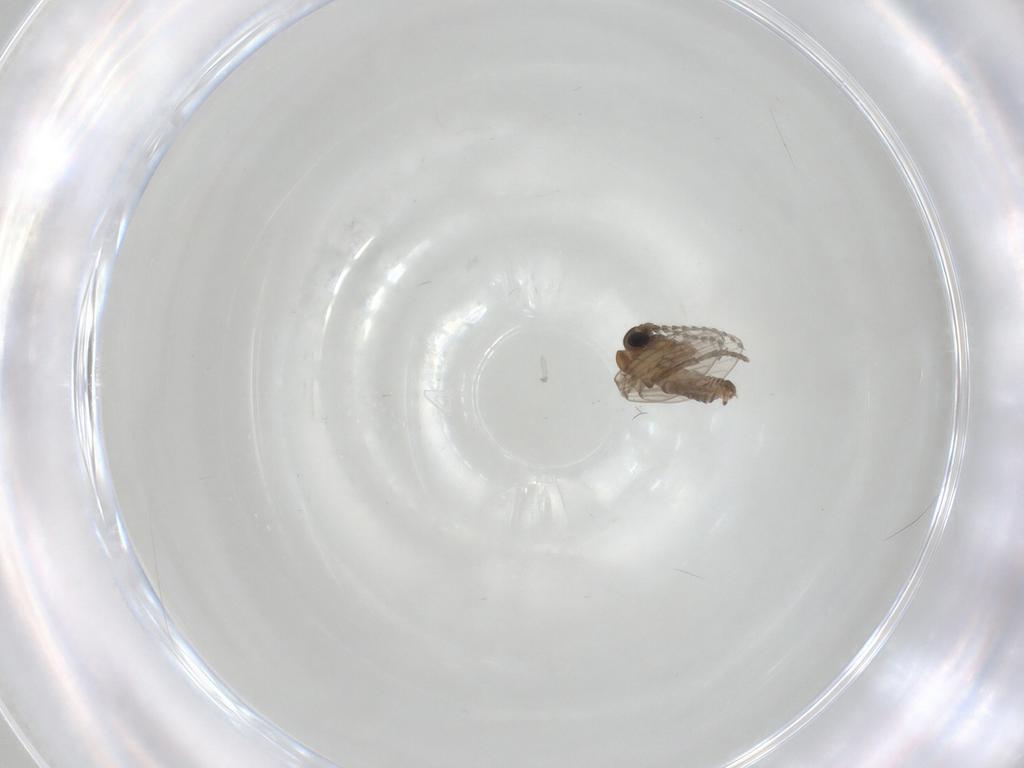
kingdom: Animalia
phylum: Arthropoda
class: Insecta
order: Diptera
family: Psychodidae
